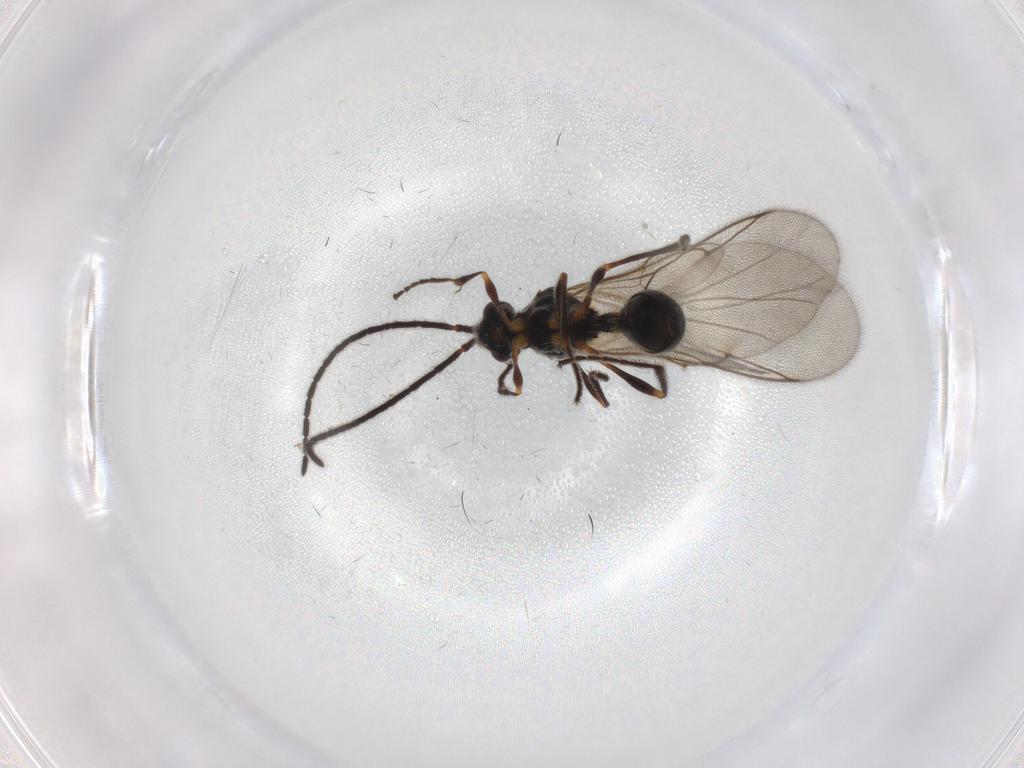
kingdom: Animalia
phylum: Arthropoda
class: Insecta
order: Hymenoptera
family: Diapriidae
